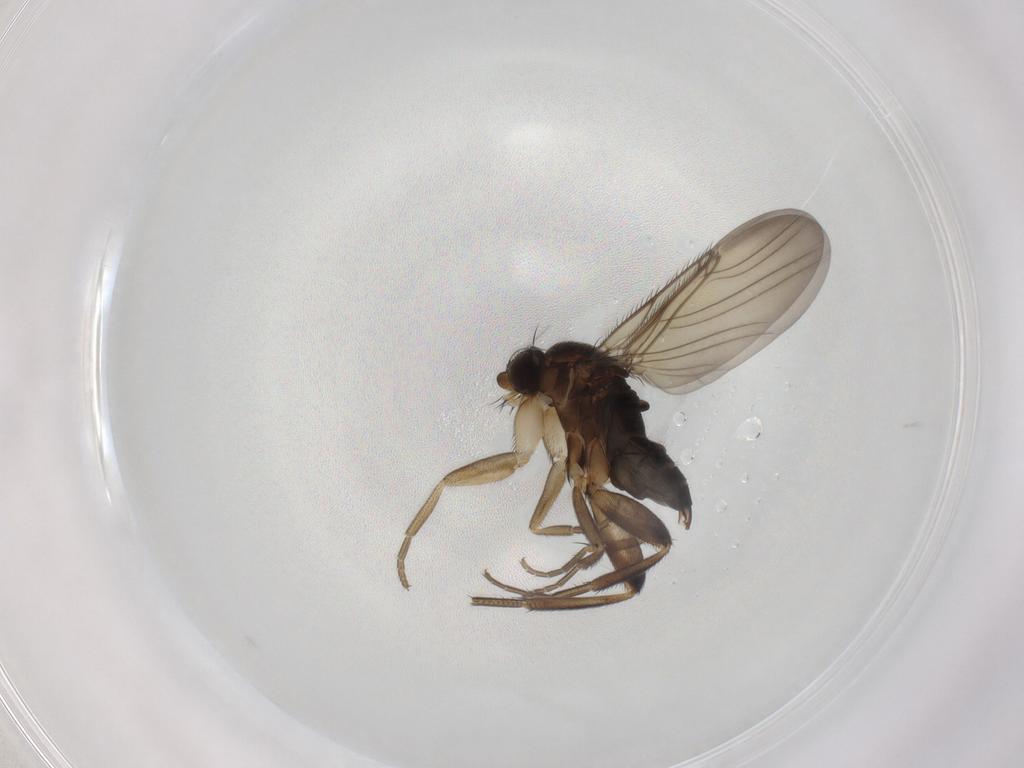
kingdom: Animalia
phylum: Arthropoda
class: Insecta
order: Diptera
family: Phoridae
